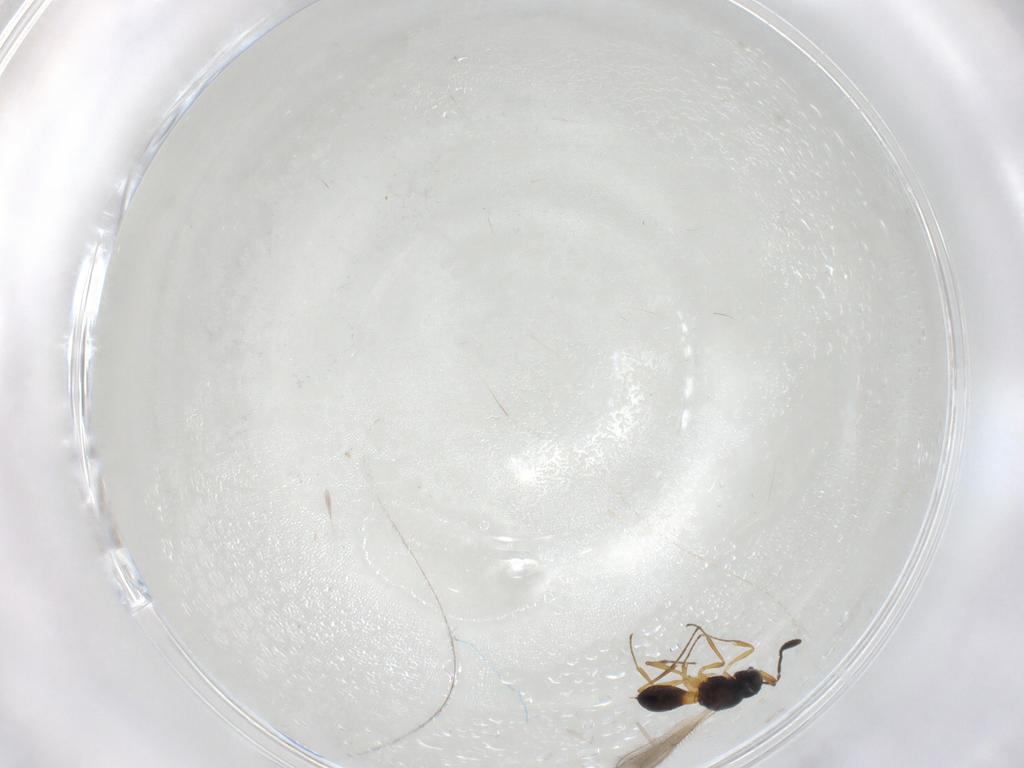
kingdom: Animalia
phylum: Arthropoda
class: Insecta
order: Hymenoptera
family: Scelionidae
